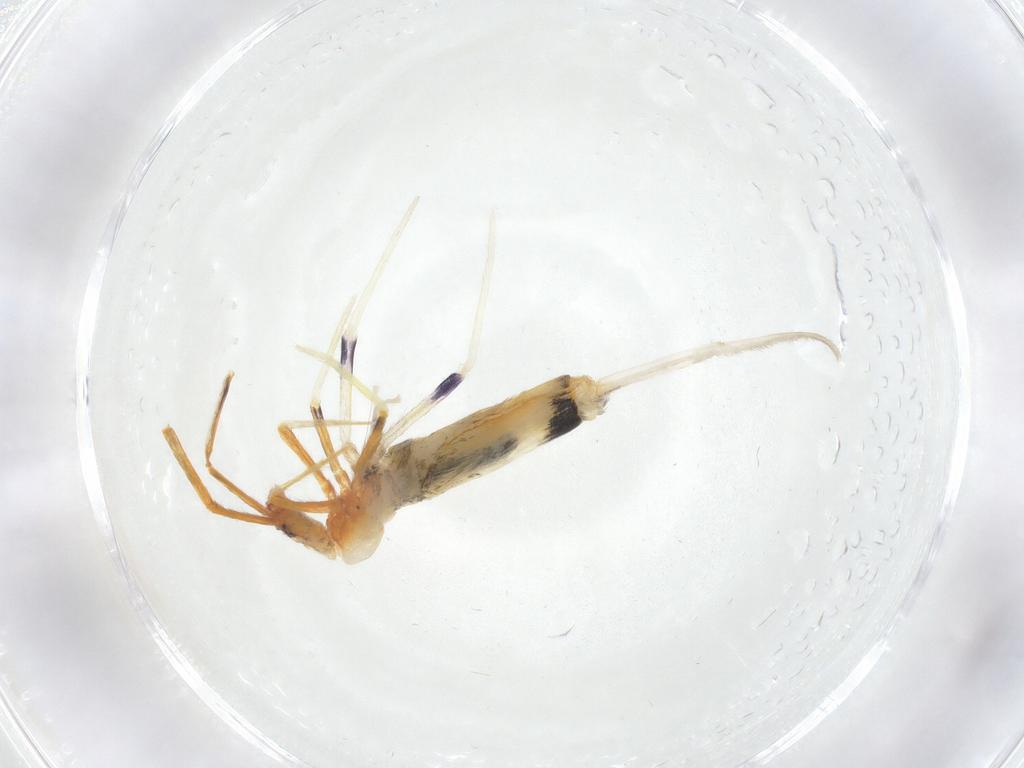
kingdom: Animalia
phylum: Arthropoda
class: Collembola
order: Entomobryomorpha
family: Entomobryidae
